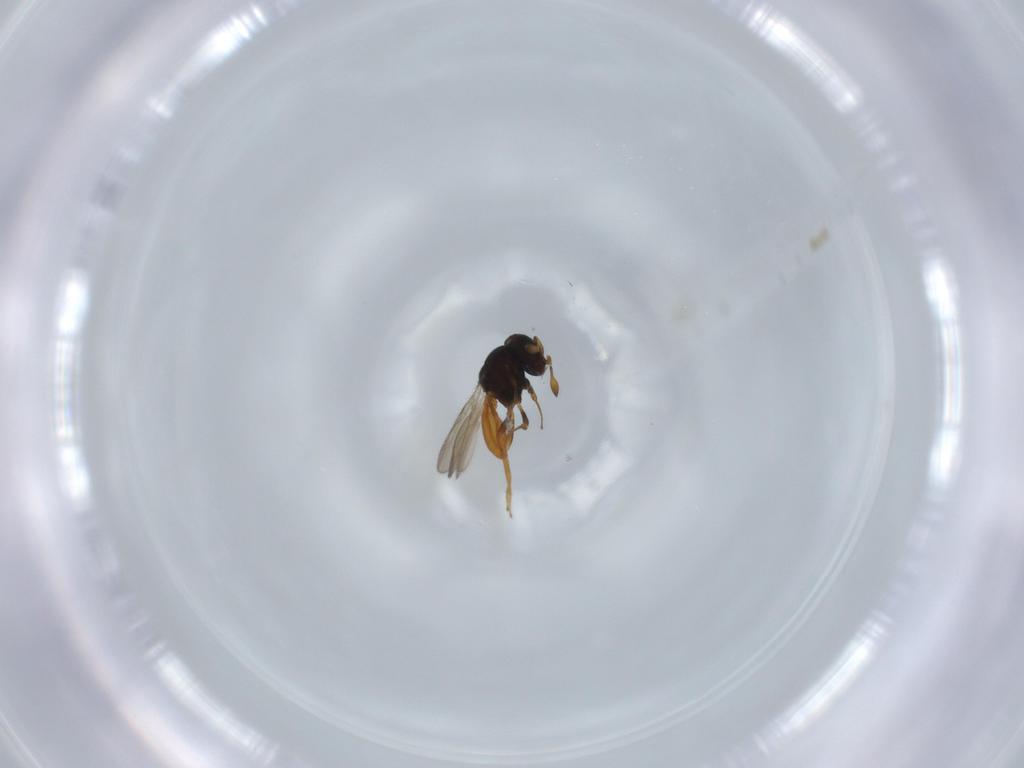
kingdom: Animalia
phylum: Arthropoda
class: Insecta
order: Hymenoptera
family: Scelionidae
